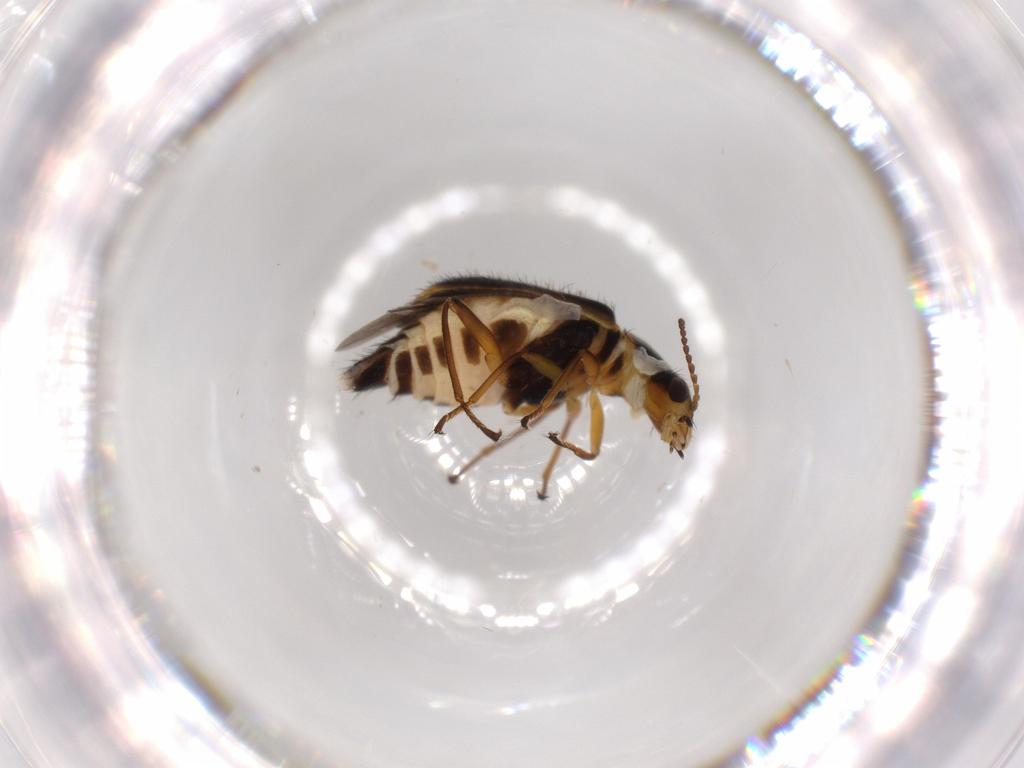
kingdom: Animalia
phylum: Arthropoda
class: Insecta
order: Coleoptera
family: Melyridae
